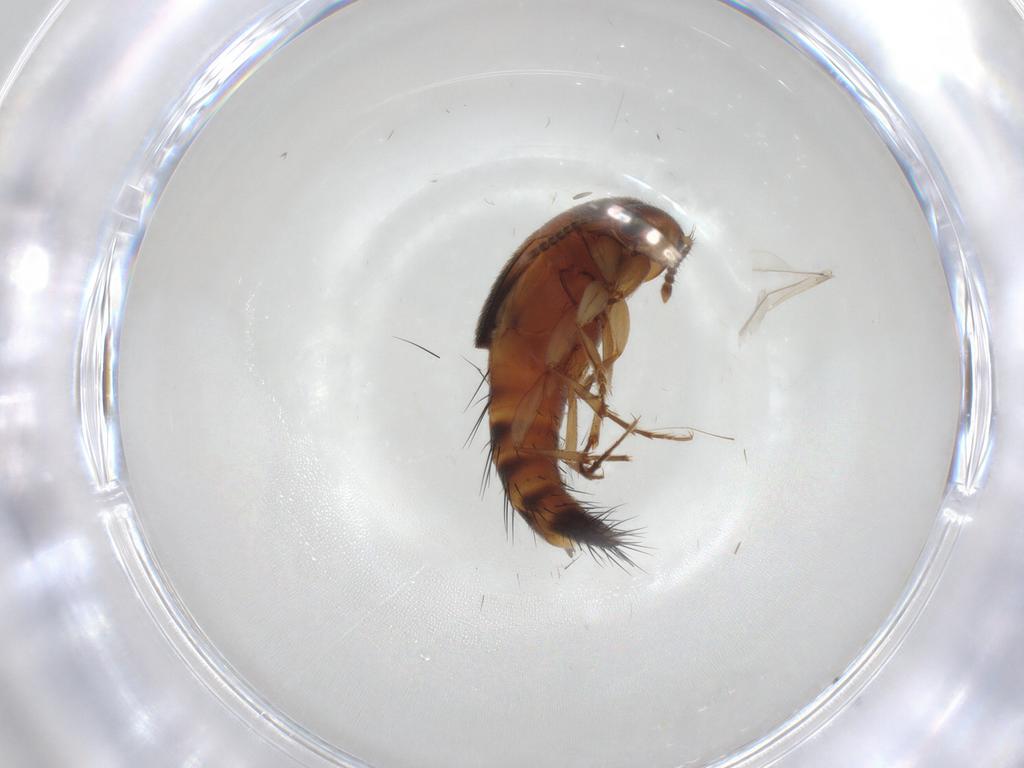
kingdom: Animalia
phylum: Arthropoda
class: Insecta
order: Coleoptera
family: Staphylinidae
